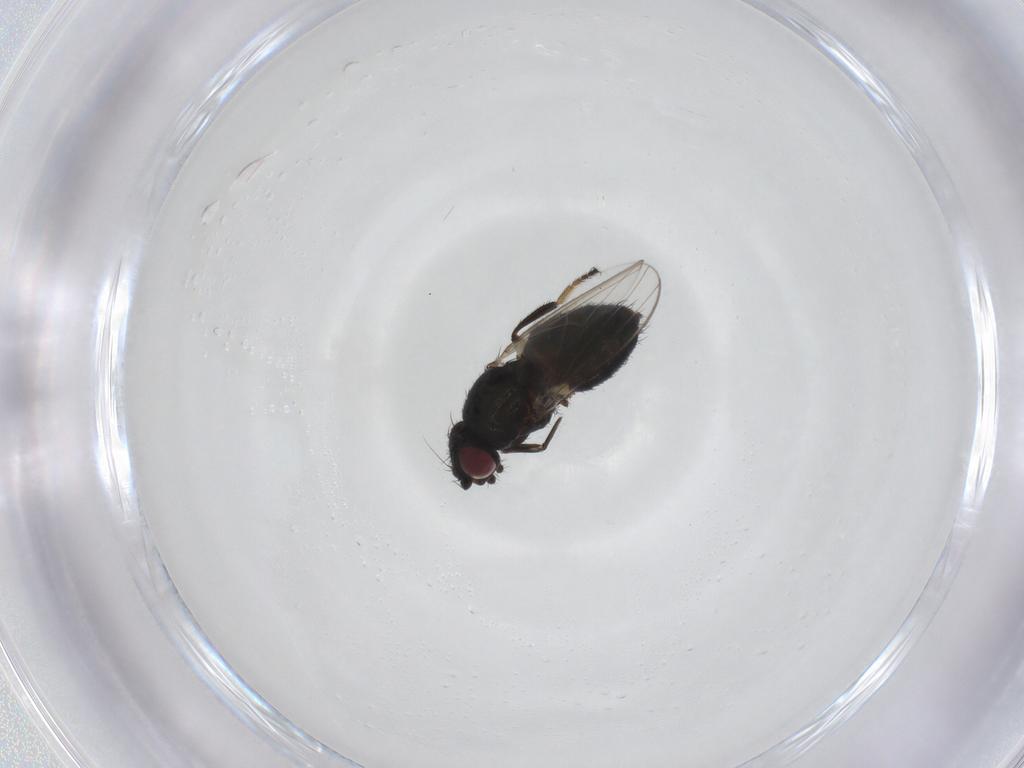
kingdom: Animalia
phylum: Arthropoda
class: Insecta
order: Diptera
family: Milichiidae
